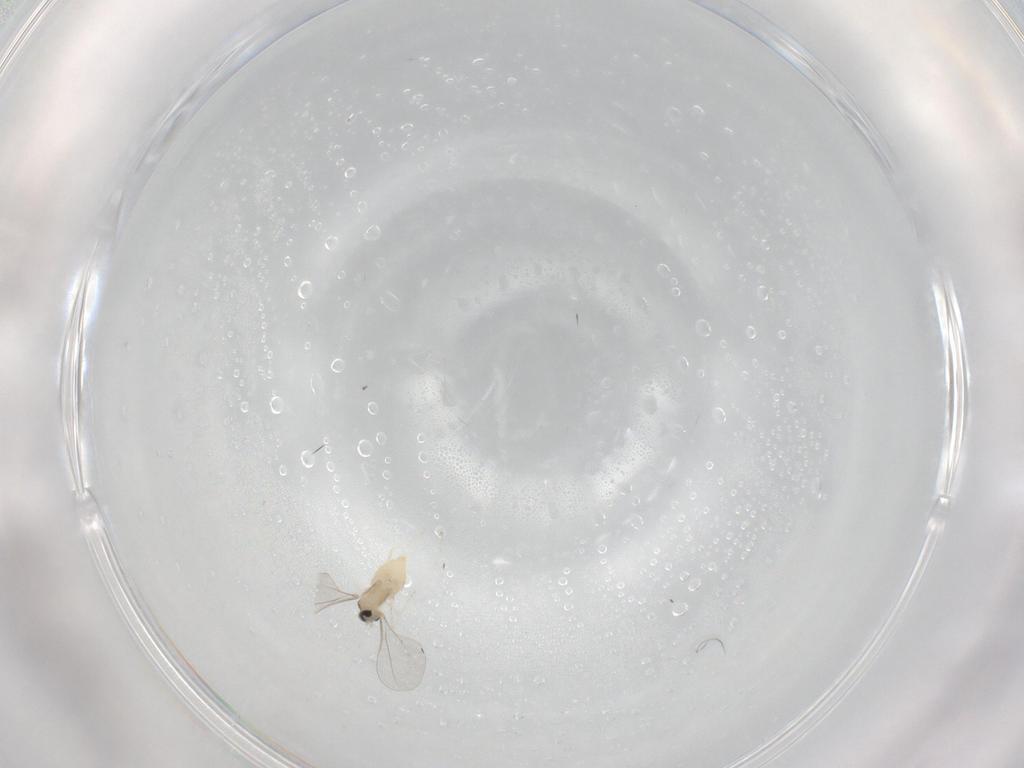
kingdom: Animalia
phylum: Arthropoda
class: Insecta
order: Diptera
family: Cecidomyiidae
